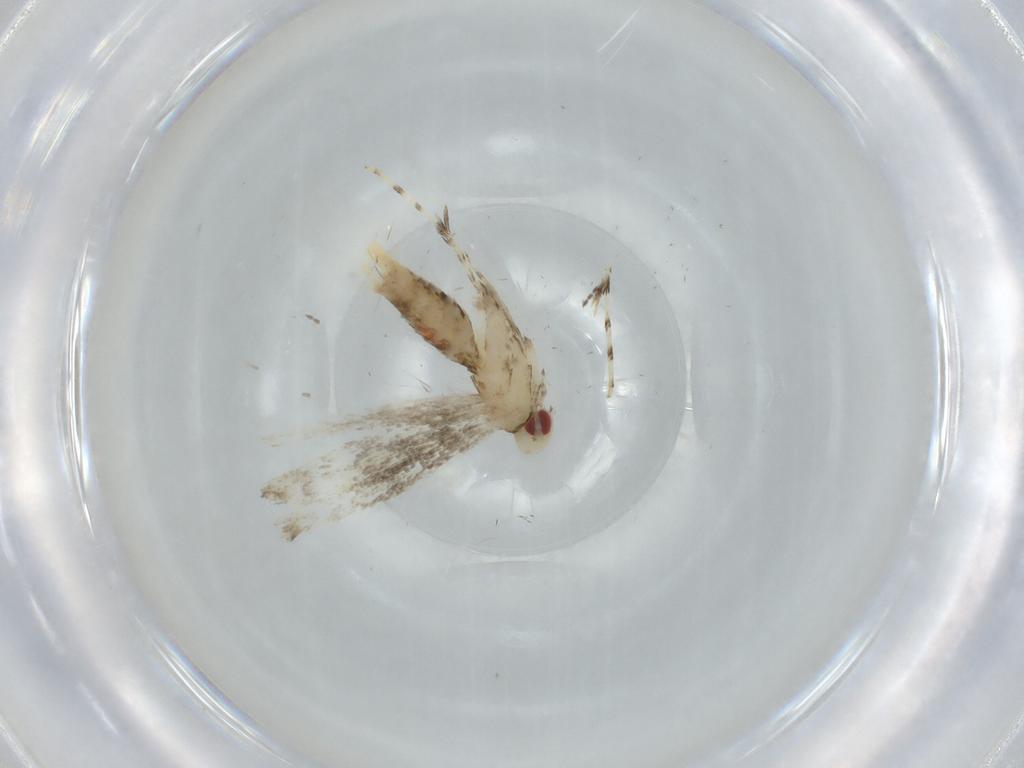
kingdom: Animalia
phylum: Arthropoda
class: Insecta
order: Lepidoptera
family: Gracillariidae
